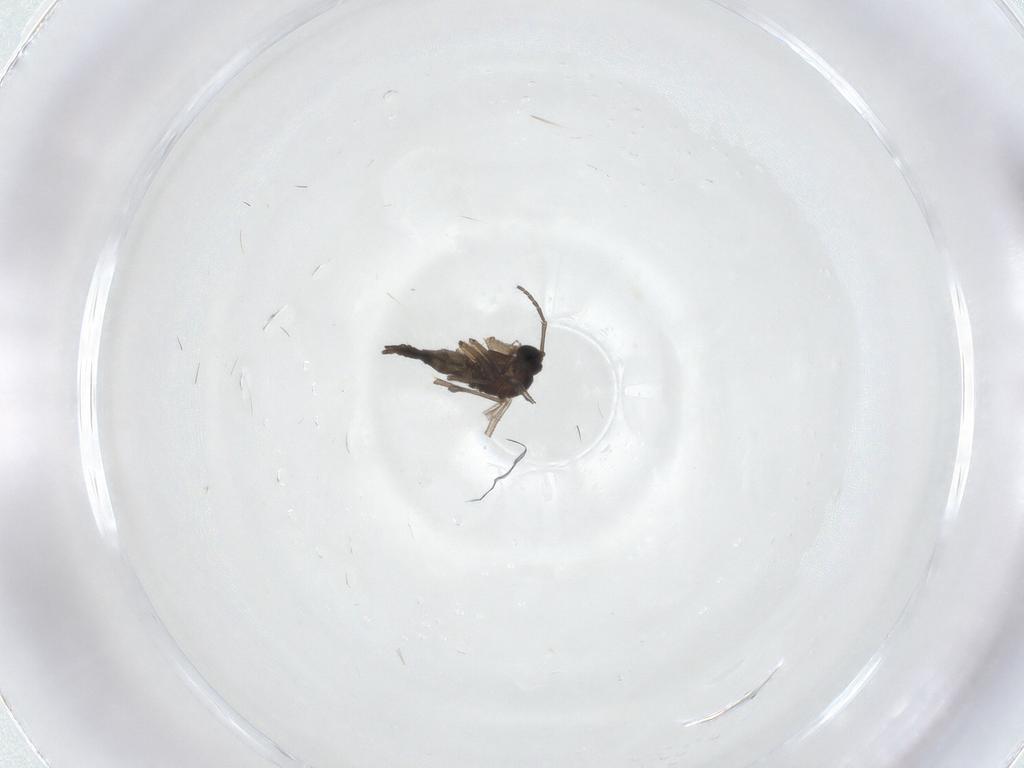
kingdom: Animalia
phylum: Arthropoda
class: Insecta
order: Diptera
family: Sciaridae
